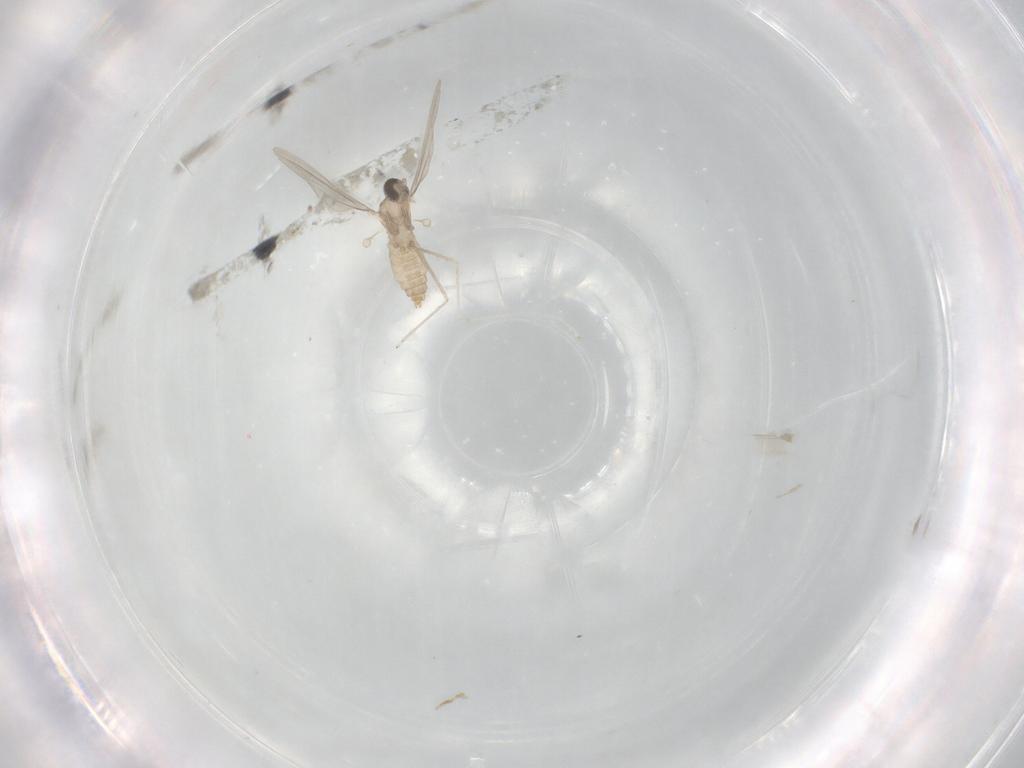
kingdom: Animalia
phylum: Arthropoda
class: Insecta
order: Diptera
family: Cecidomyiidae
